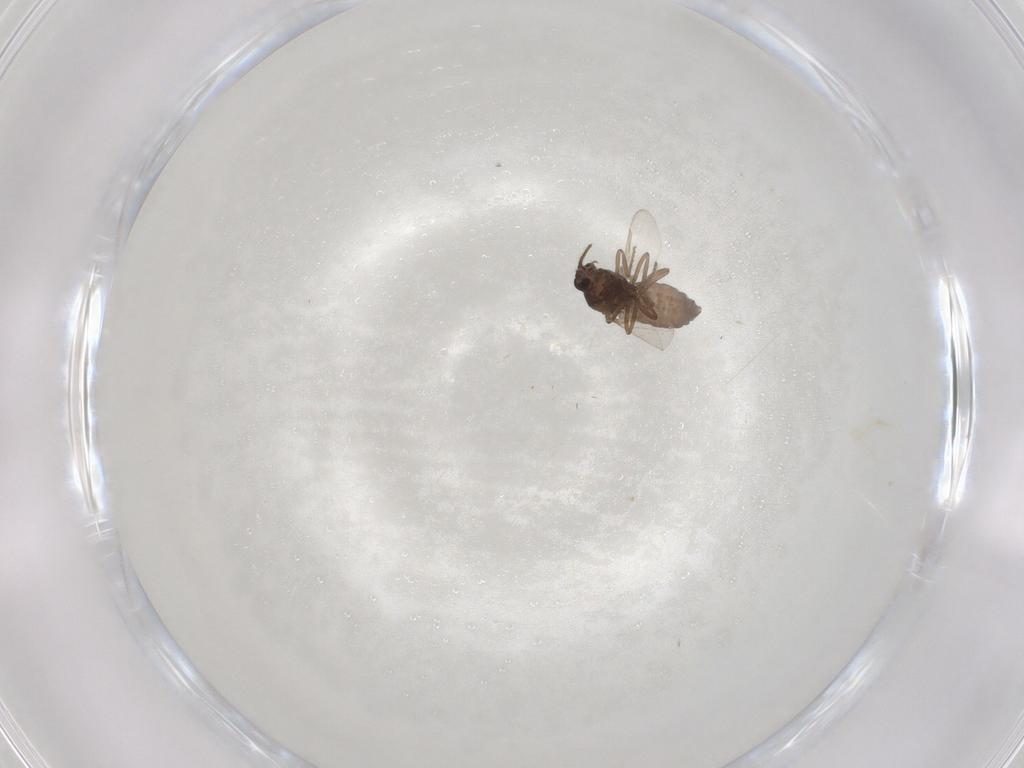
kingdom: Animalia
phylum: Arthropoda
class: Insecta
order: Diptera
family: Ceratopogonidae
